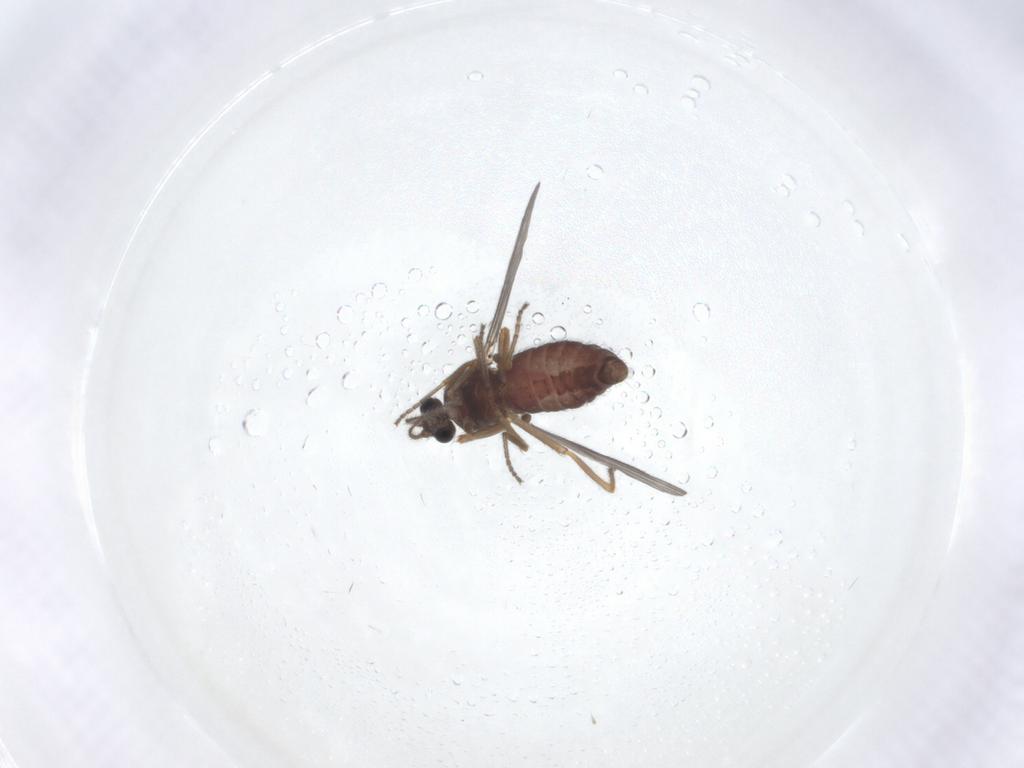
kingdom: Animalia
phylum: Arthropoda
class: Insecta
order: Diptera
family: Ceratopogonidae
